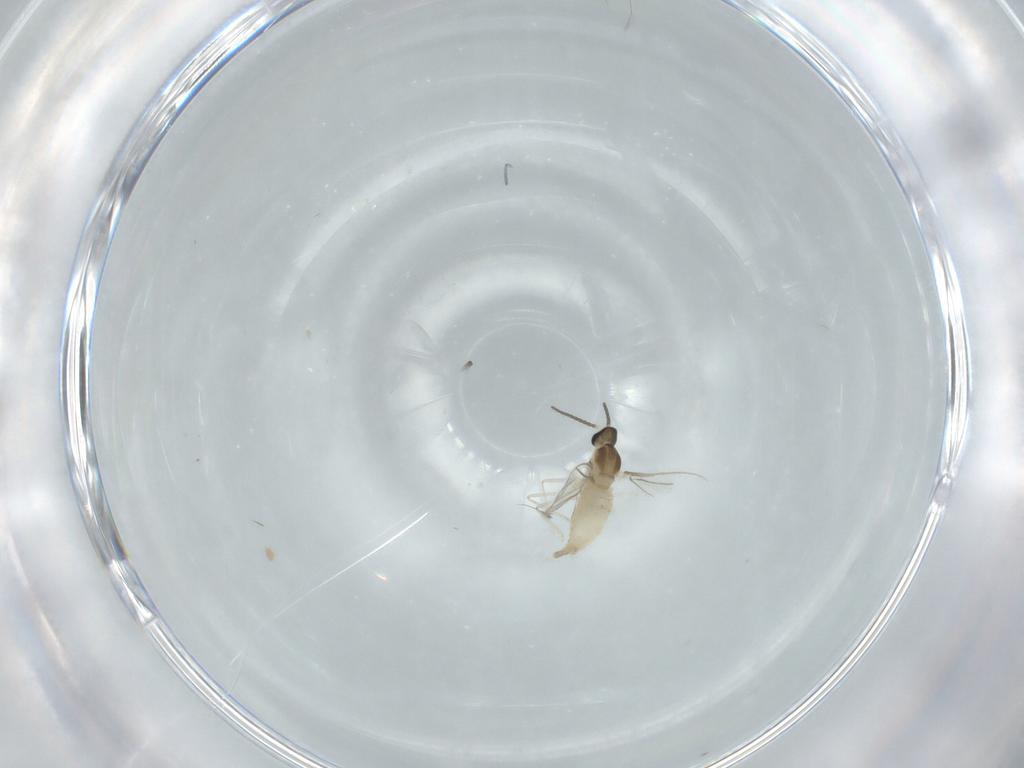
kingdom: Animalia
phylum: Arthropoda
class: Insecta
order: Diptera
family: Cecidomyiidae
